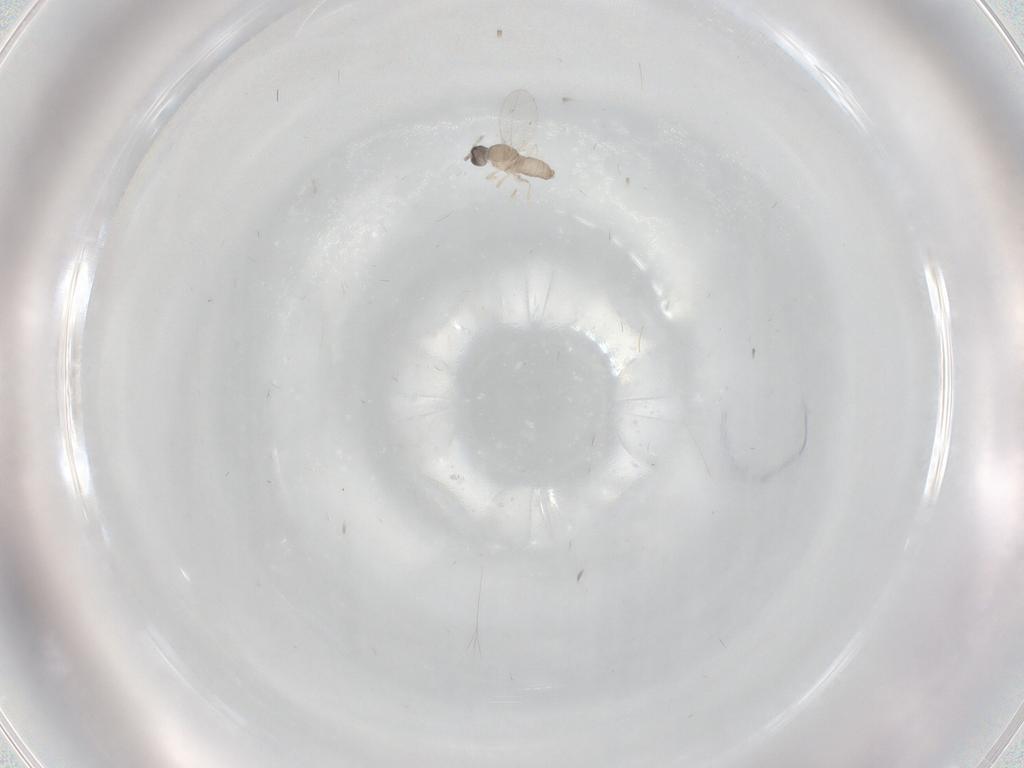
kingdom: Animalia
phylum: Arthropoda
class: Insecta
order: Diptera
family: Cecidomyiidae
